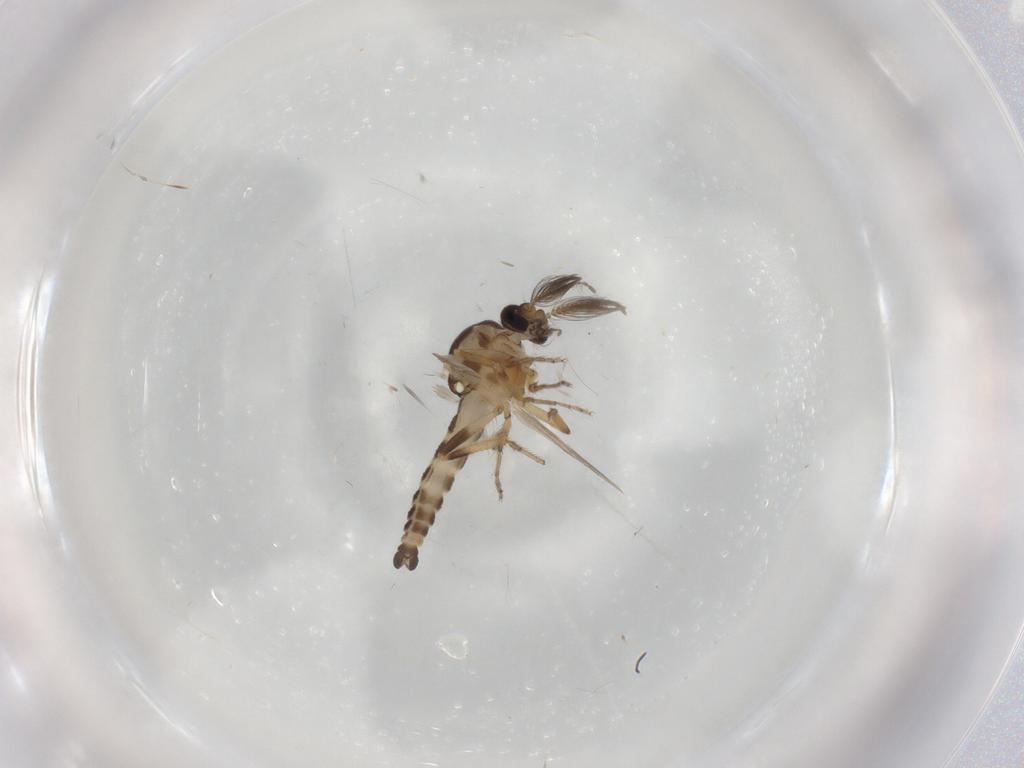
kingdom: Animalia
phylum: Arthropoda
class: Insecta
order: Diptera
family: Ceratopogonidae
